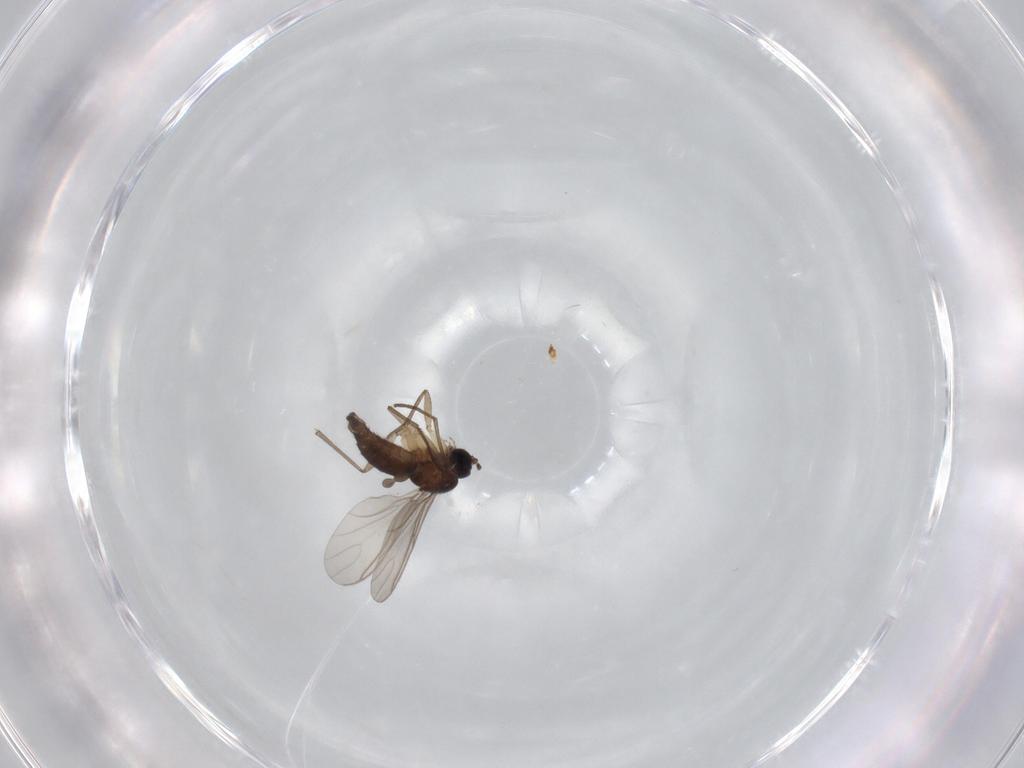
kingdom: Animalia
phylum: Arthropoda
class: Insecta
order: Diptera
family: Sciaridae
